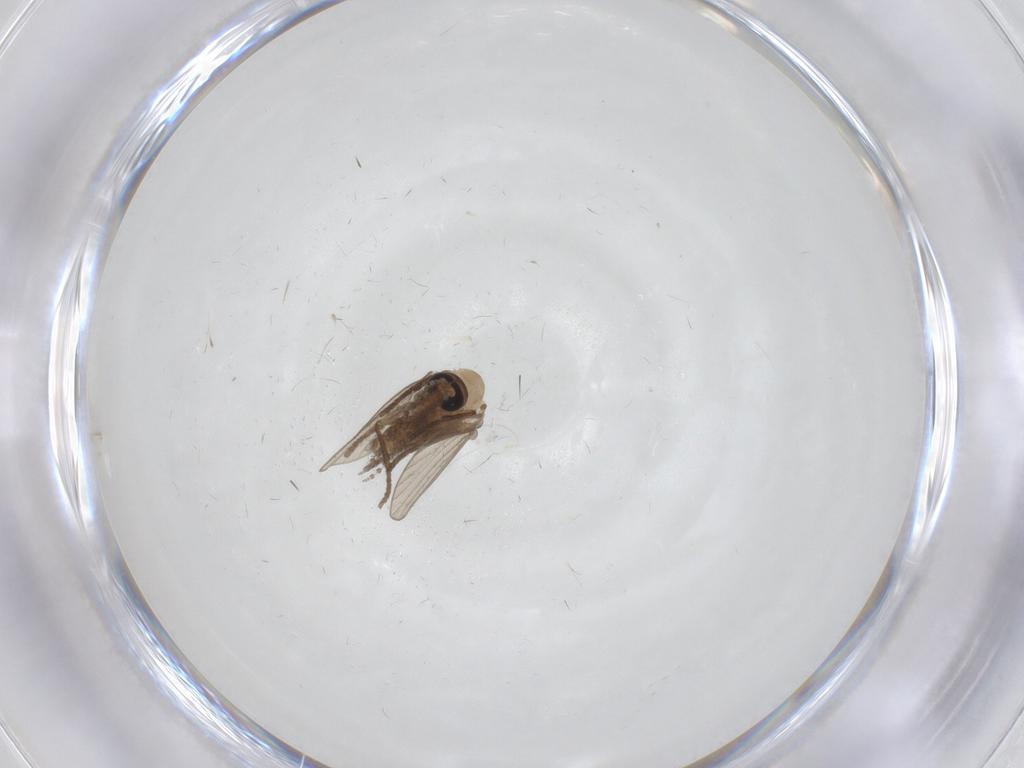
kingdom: Animalia
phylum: Arthropoda
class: Insecta
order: Diptera
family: Psychodidae
